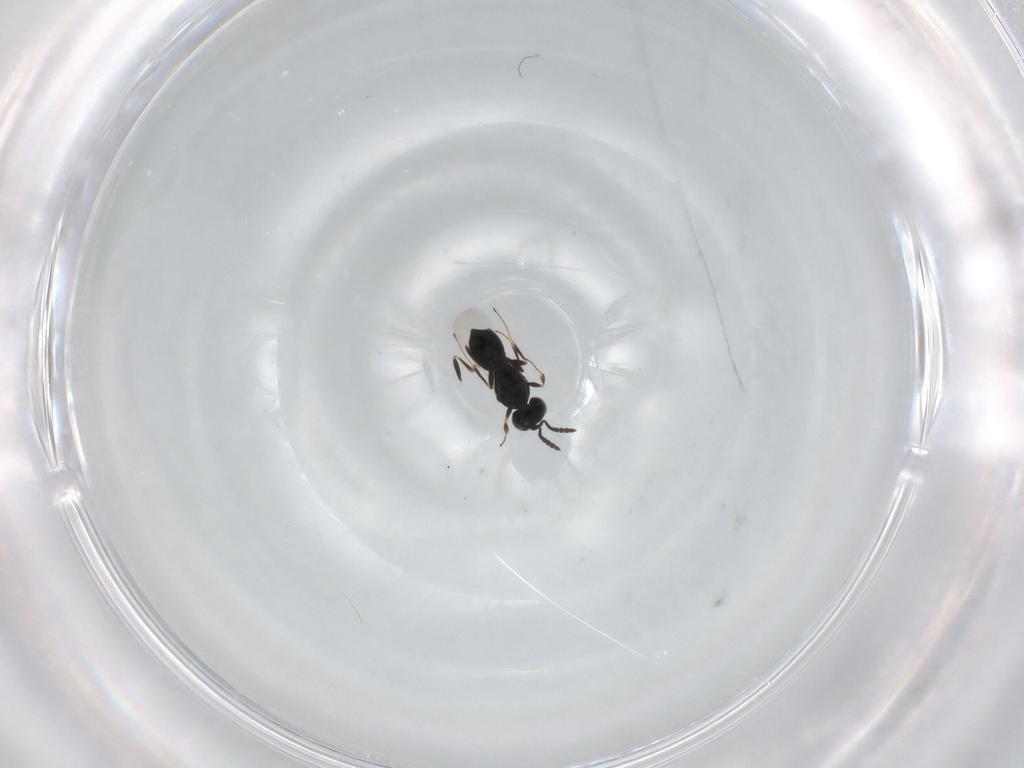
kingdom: Animalia
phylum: Arthropoda
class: Insecta
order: Hymenoptera
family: Scelionidae
